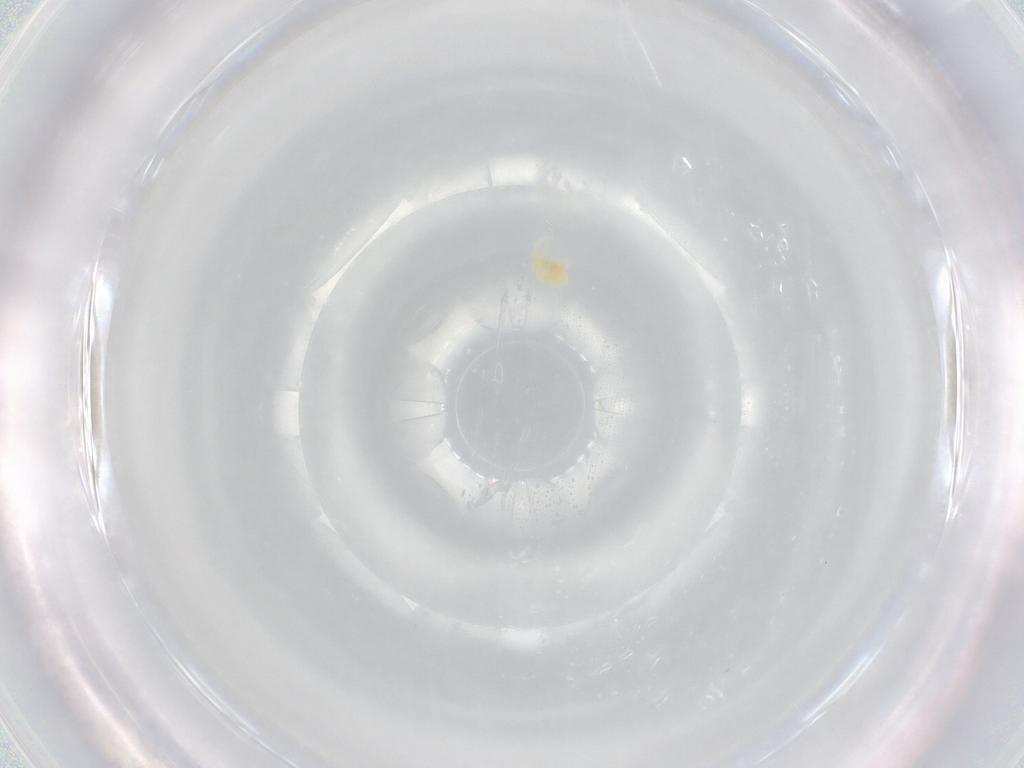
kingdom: Animalia
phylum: Arthropoda
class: Arachnida
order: Trombidiformes
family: Eupodidae
